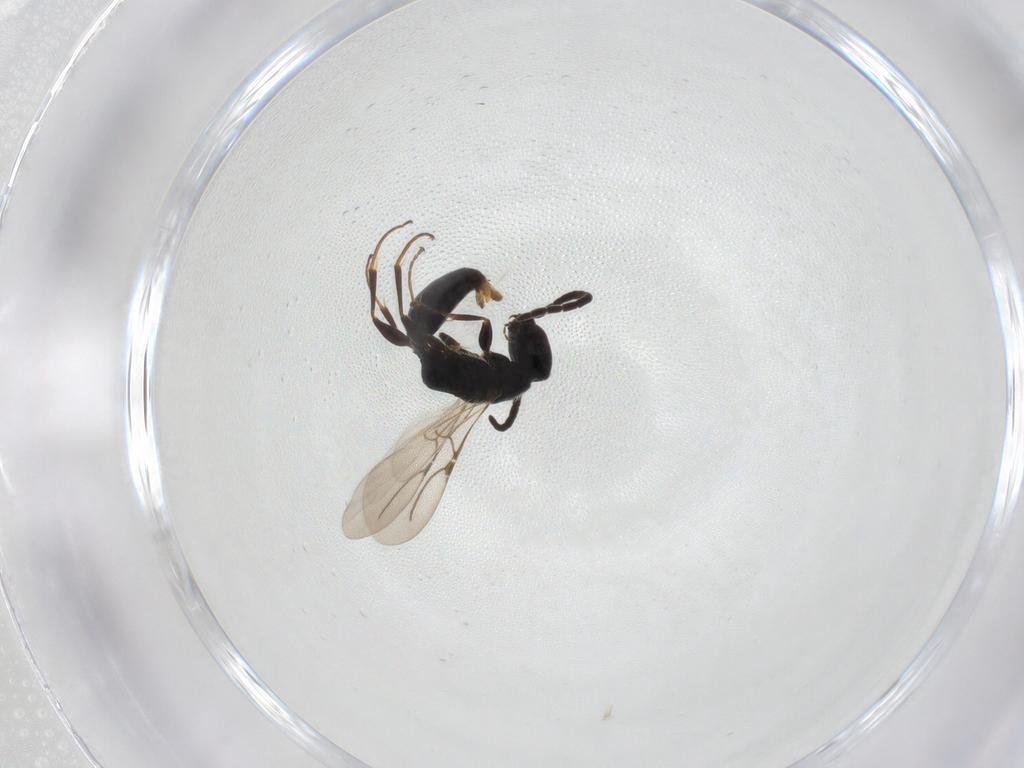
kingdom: Animalia
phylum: Arthropoda
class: Insecta
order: Hymenoptera
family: Bethylidae
